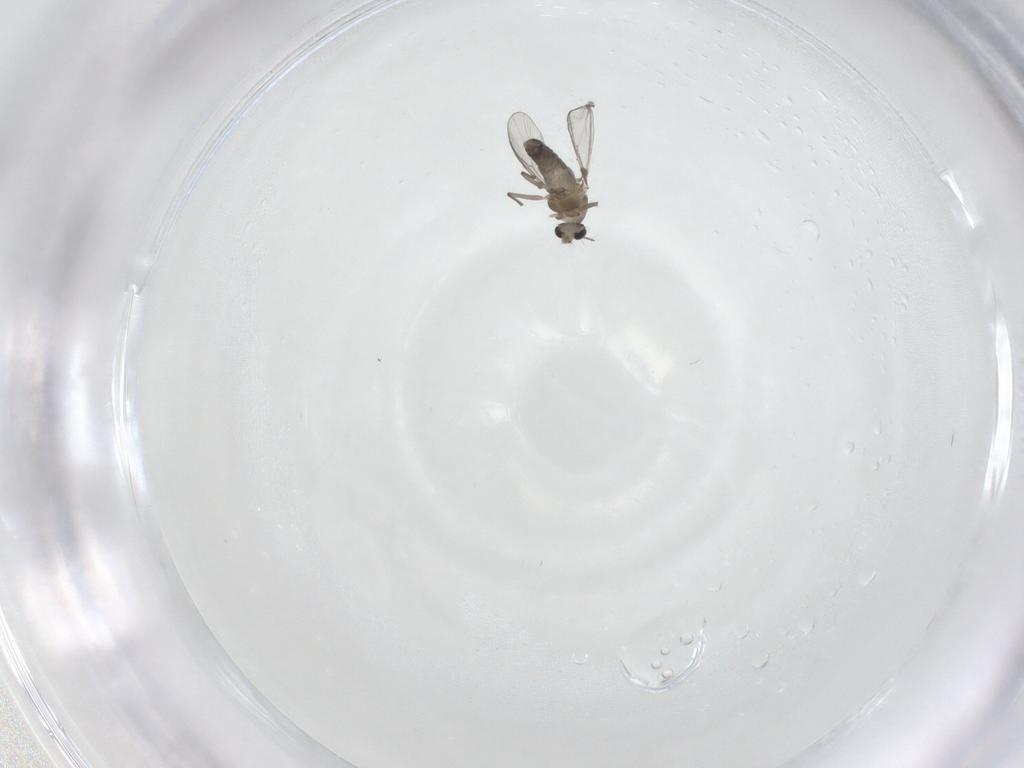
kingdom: Animalia
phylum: Arthropoda
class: Insecta
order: Diptera
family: Chironomidae
